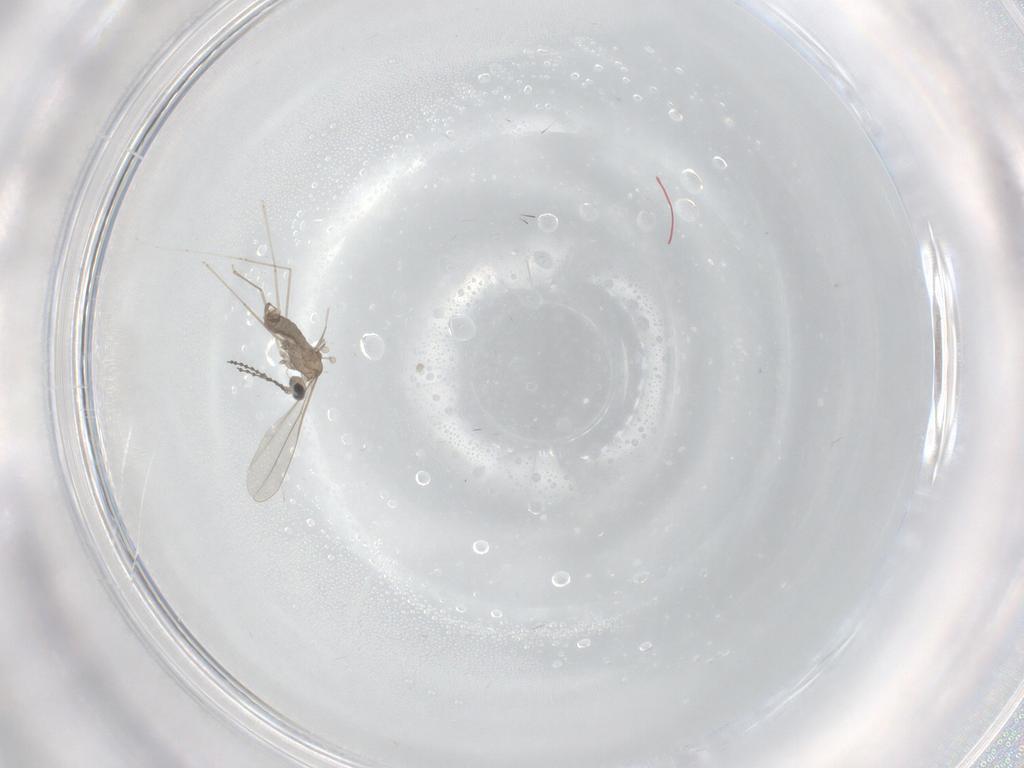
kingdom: Animalia
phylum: Arthropoda
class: Insecta
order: Diptera
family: Cecidomyiidae
